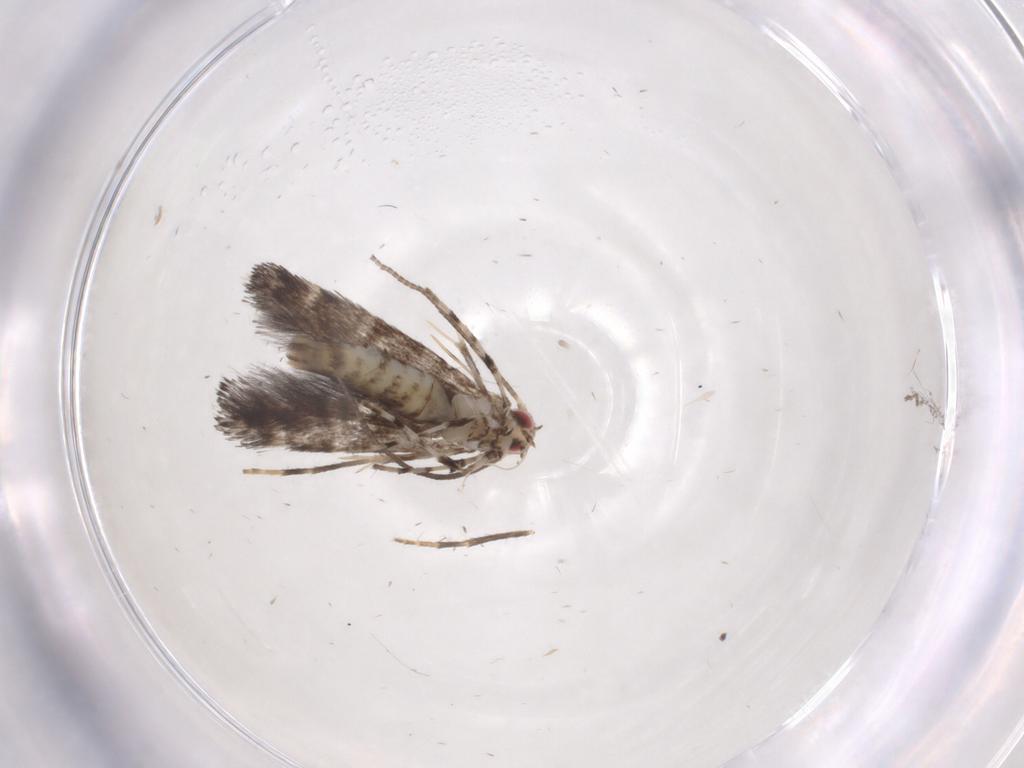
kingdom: Animalia
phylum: Arthropoda
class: Insecta
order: Lepidoptera
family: Gracillariidae
